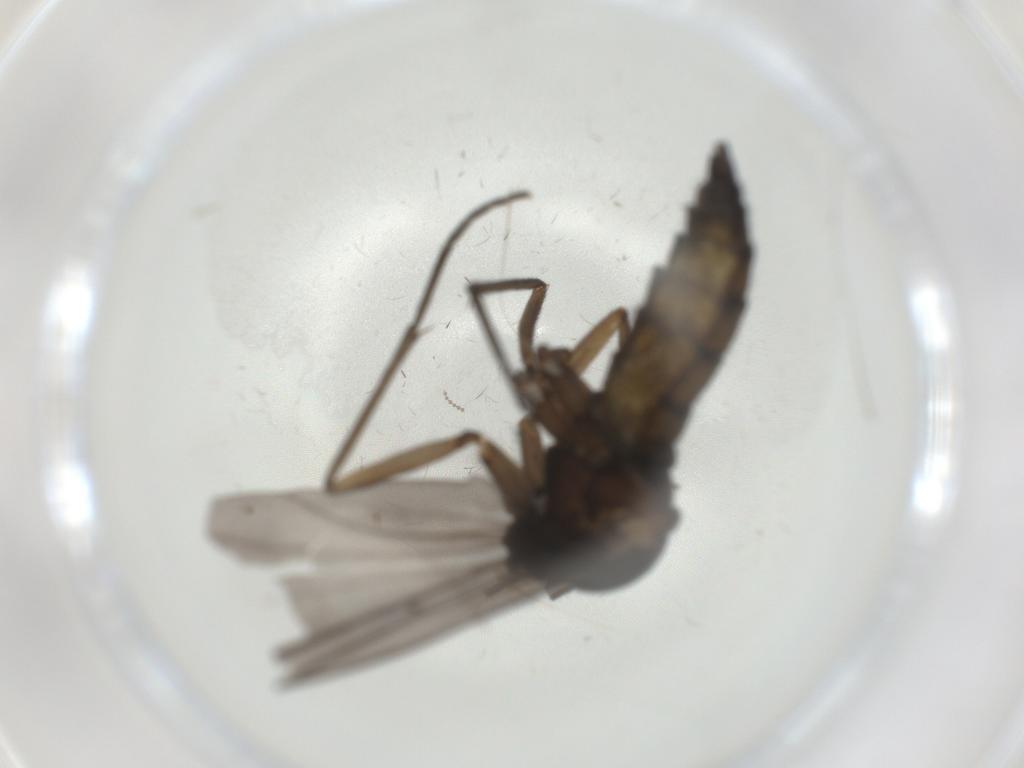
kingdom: Animalia
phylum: Arthropoda
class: Insecta
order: Diptera
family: Sciaridae
